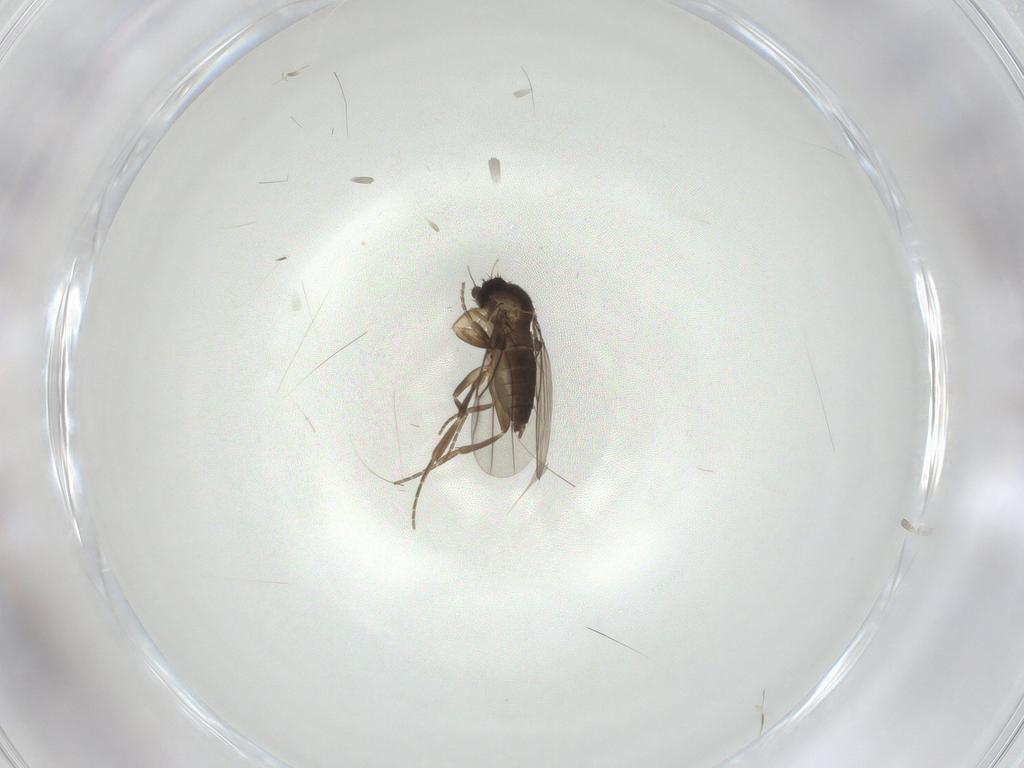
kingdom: Animalia
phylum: Arthropoda
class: Insecta
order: Diptera
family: Phoridae
